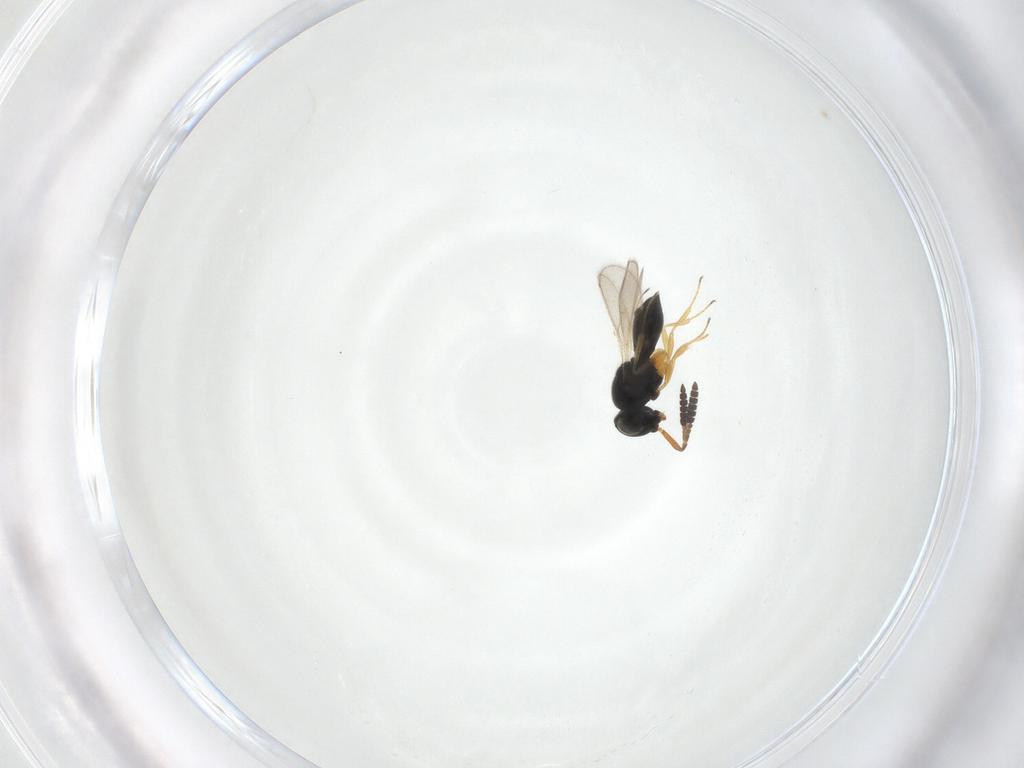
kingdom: Animalia
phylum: Arthropoda
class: Insecta
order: Hymenoptera
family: Scelionidae
